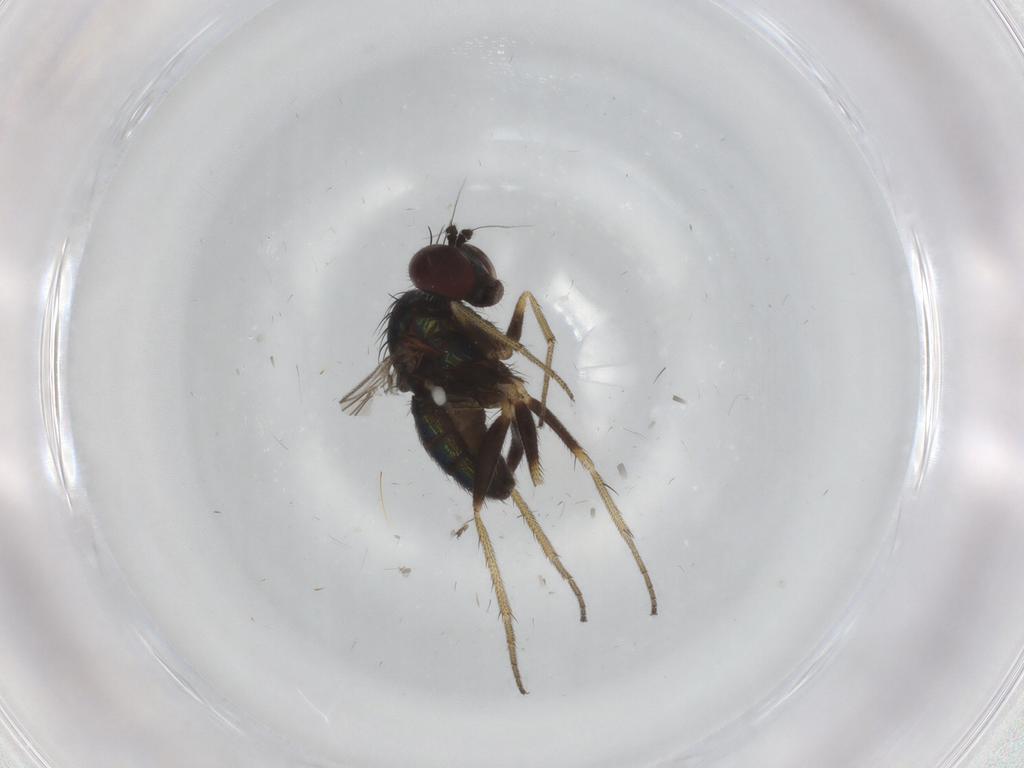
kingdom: Animalia
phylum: Arthropoda
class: Insecta
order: Diptera
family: Dolichopodidae
